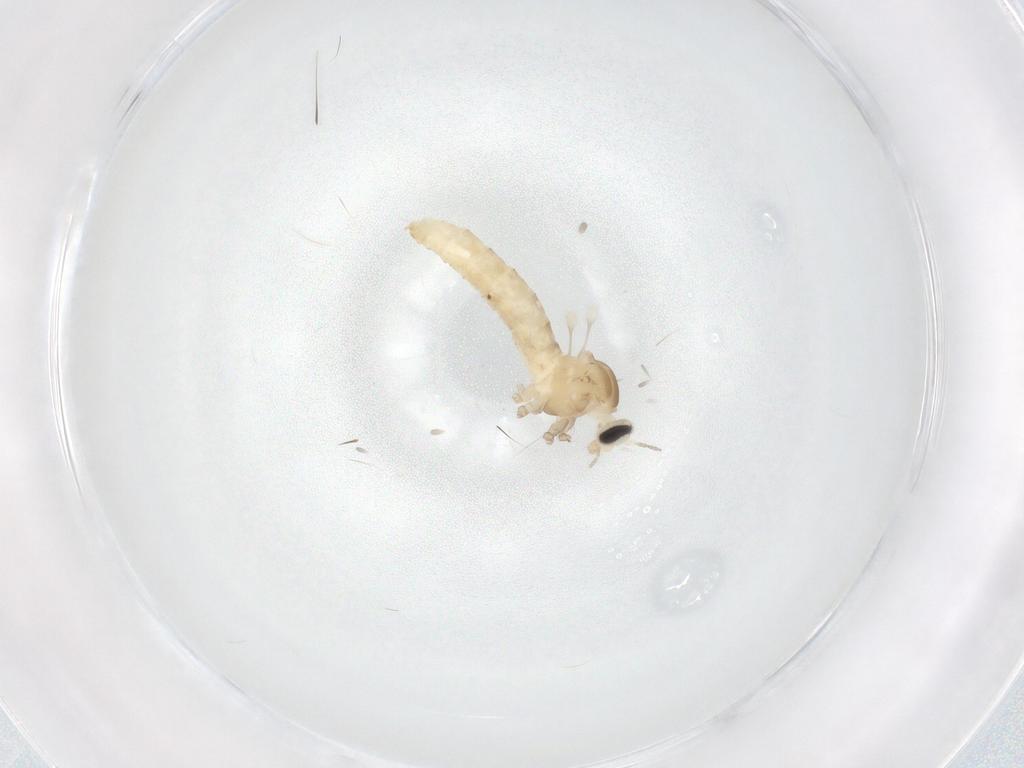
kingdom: Animalia
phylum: Arthropoda
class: Insecta
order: Diptera
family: Cecidomyiidae
